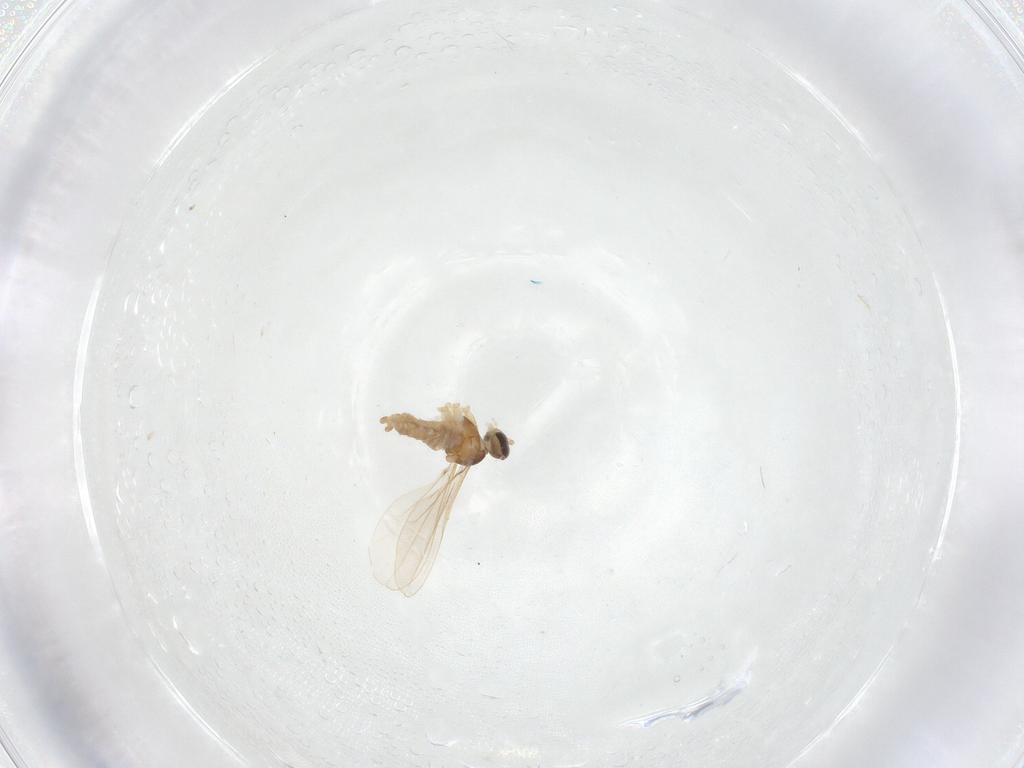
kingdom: Animalia
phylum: Arthropoda
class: Insecta
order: Diptera
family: Cecidomyiidae
